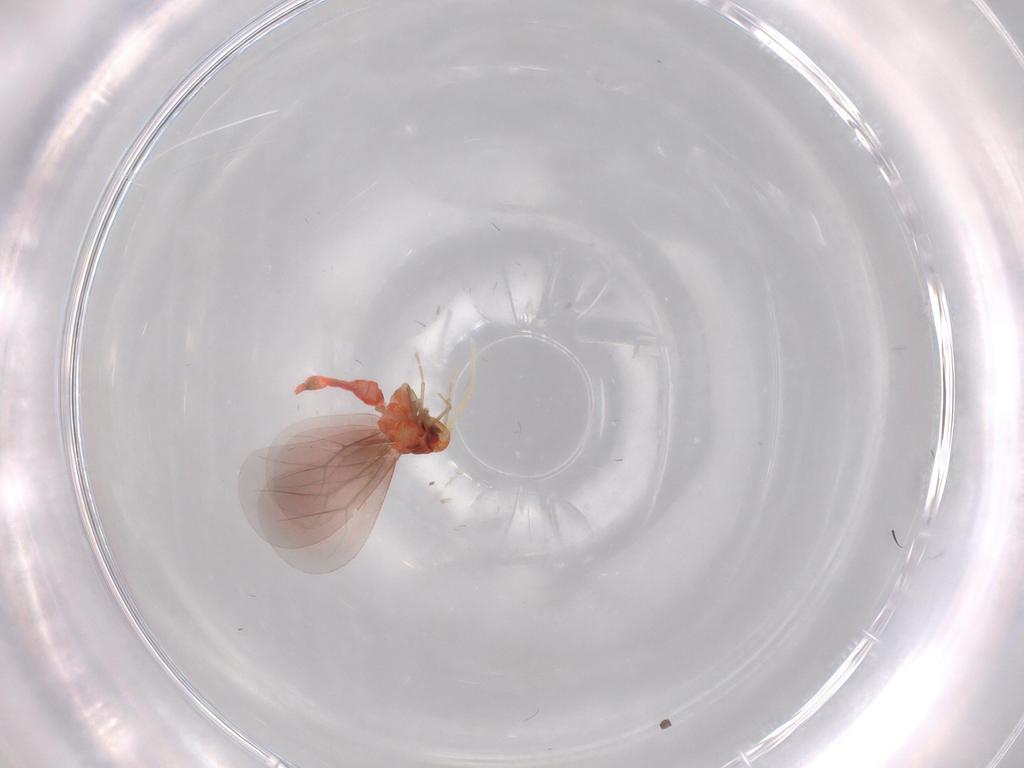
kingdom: Animalia
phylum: Arthropoda
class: Insecta
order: Hemiptera
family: Aleyrodidae
